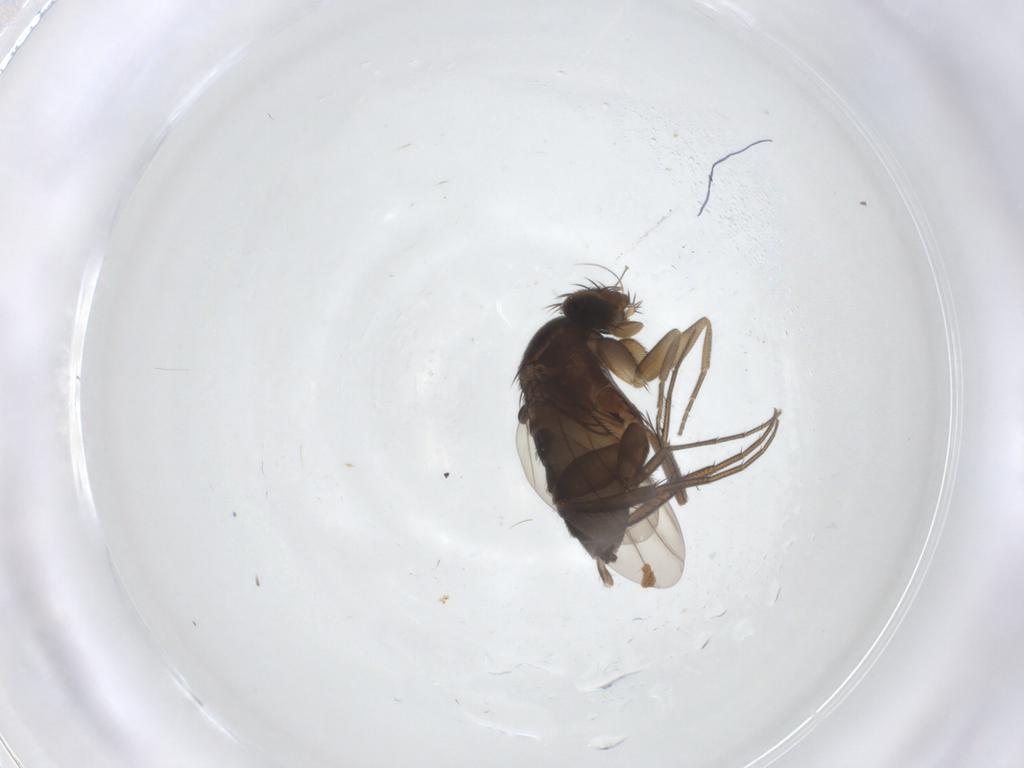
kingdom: Animalia
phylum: Arthropoda
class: Insecta
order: Diptera
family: Phoridae
